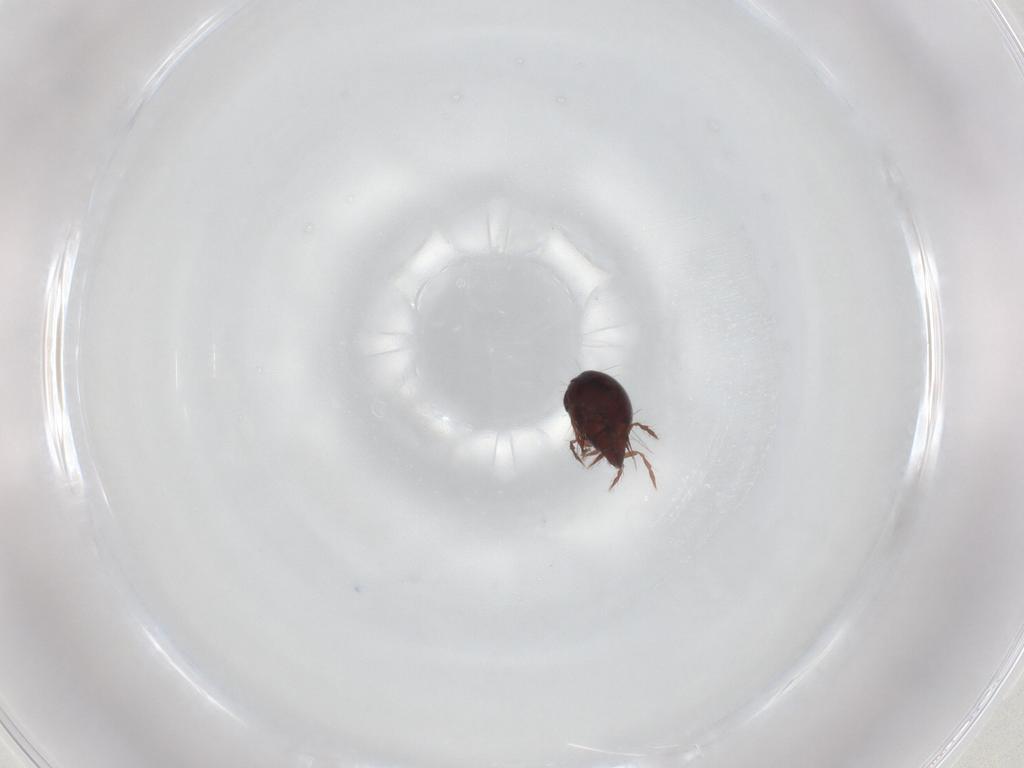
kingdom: Animalia
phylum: Arthropoda
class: Arachnida
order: Sarcoptiformes
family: Ceratoppiidae
